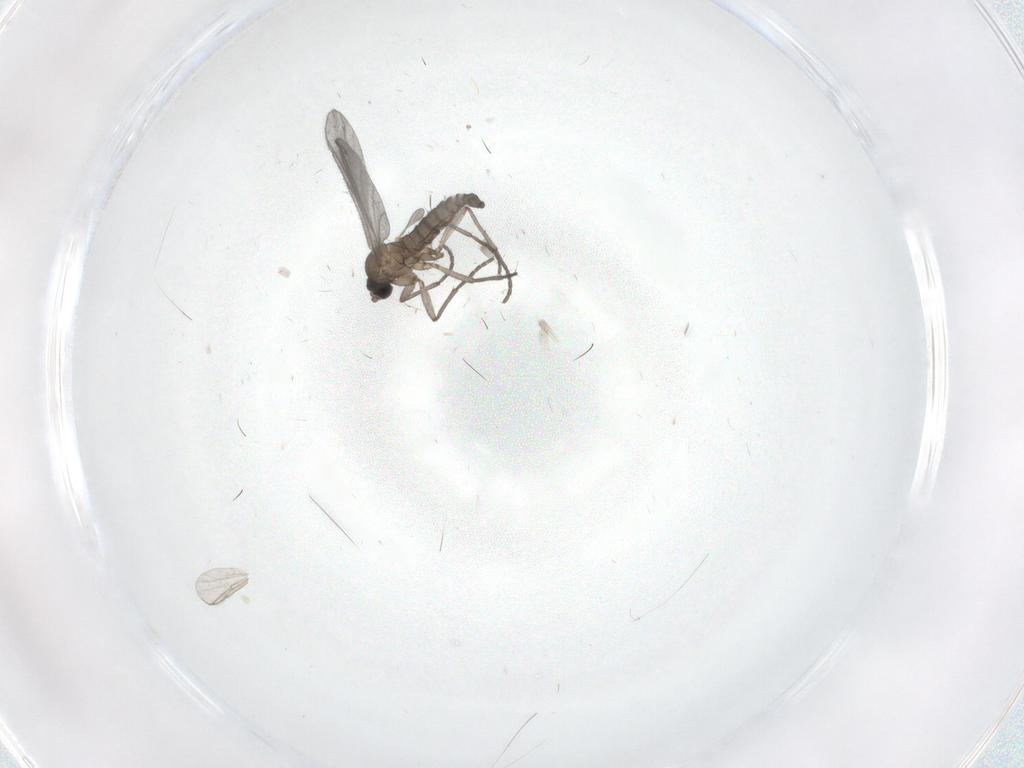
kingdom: Animalia
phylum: Arthropoda
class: Insecta
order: Diptera
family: Sciaridae
